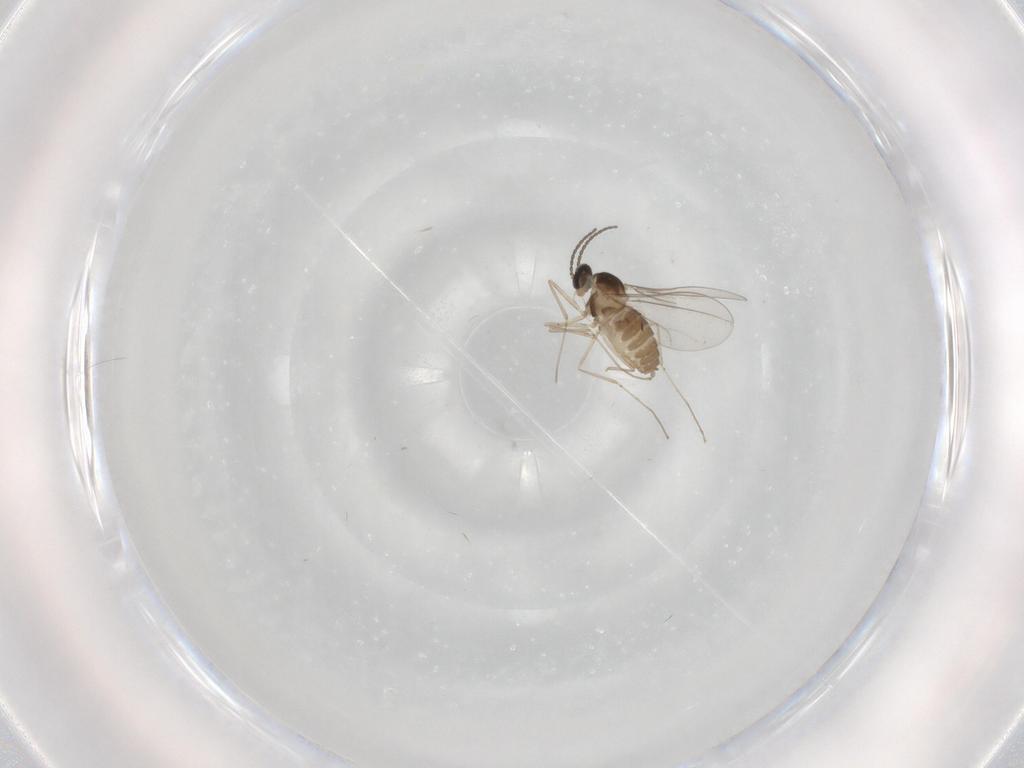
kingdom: Animalia
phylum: Arthropoda
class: Insecta
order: Diptera
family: Cecidomyiidae
